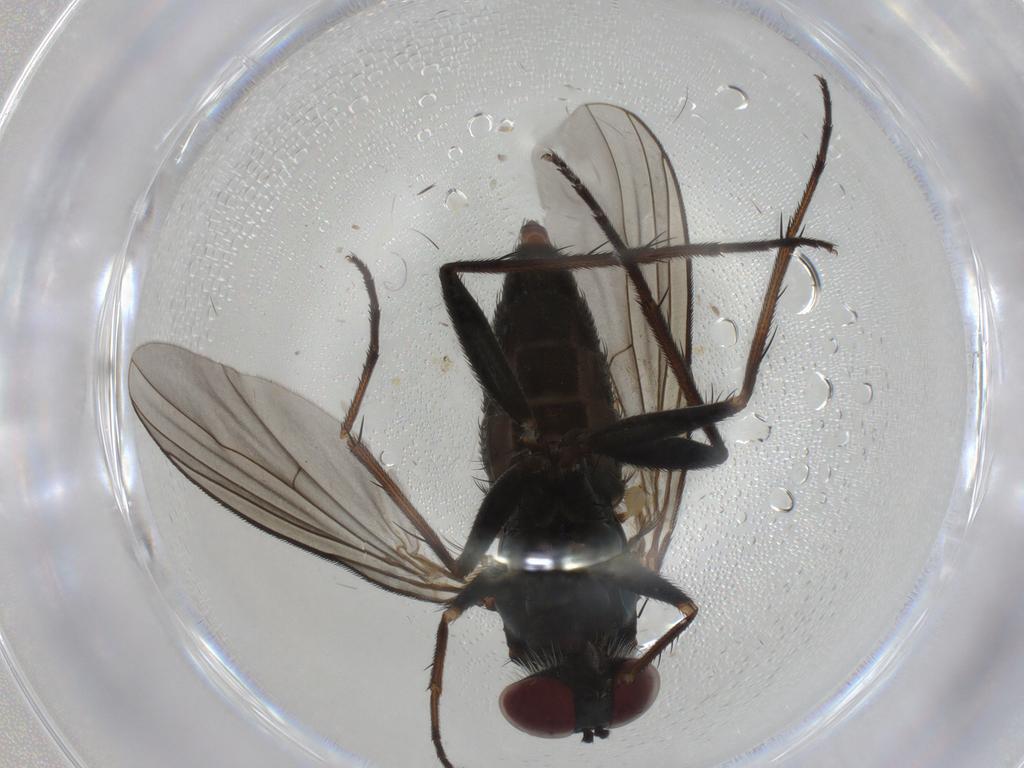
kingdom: Animalia
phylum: Arthropoda
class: Insecta
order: Diptera
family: Dolichopodidae
